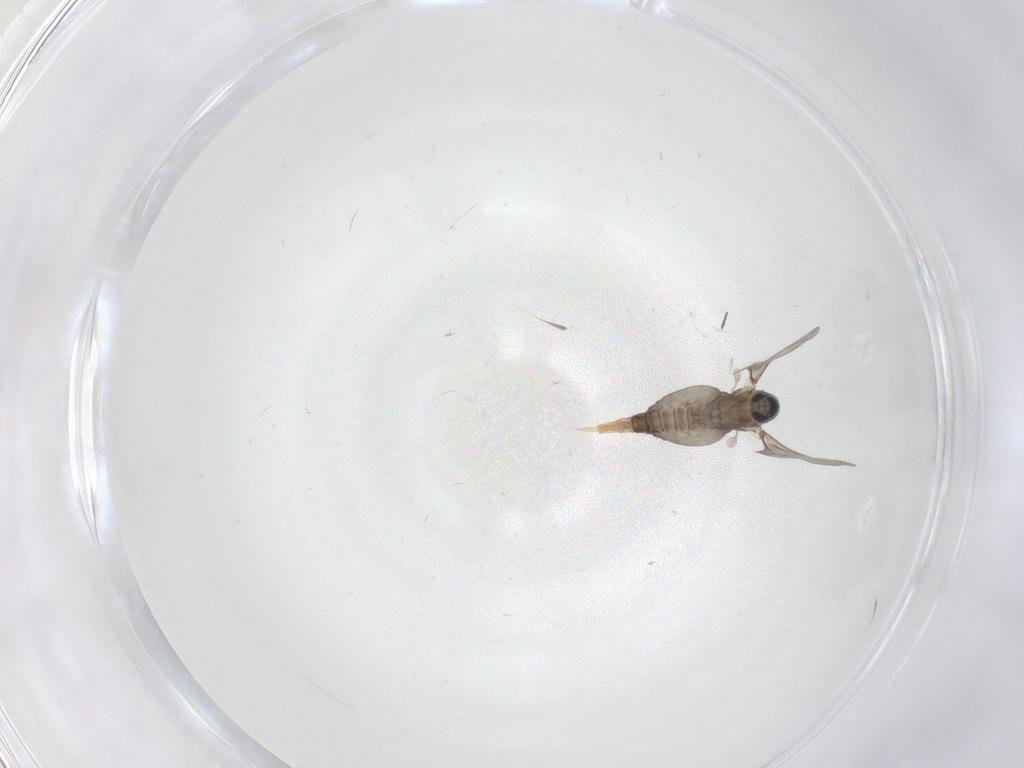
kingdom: Animalia
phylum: Arthropoda
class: Insecta
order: Diptera
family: Cecidomyiidae
